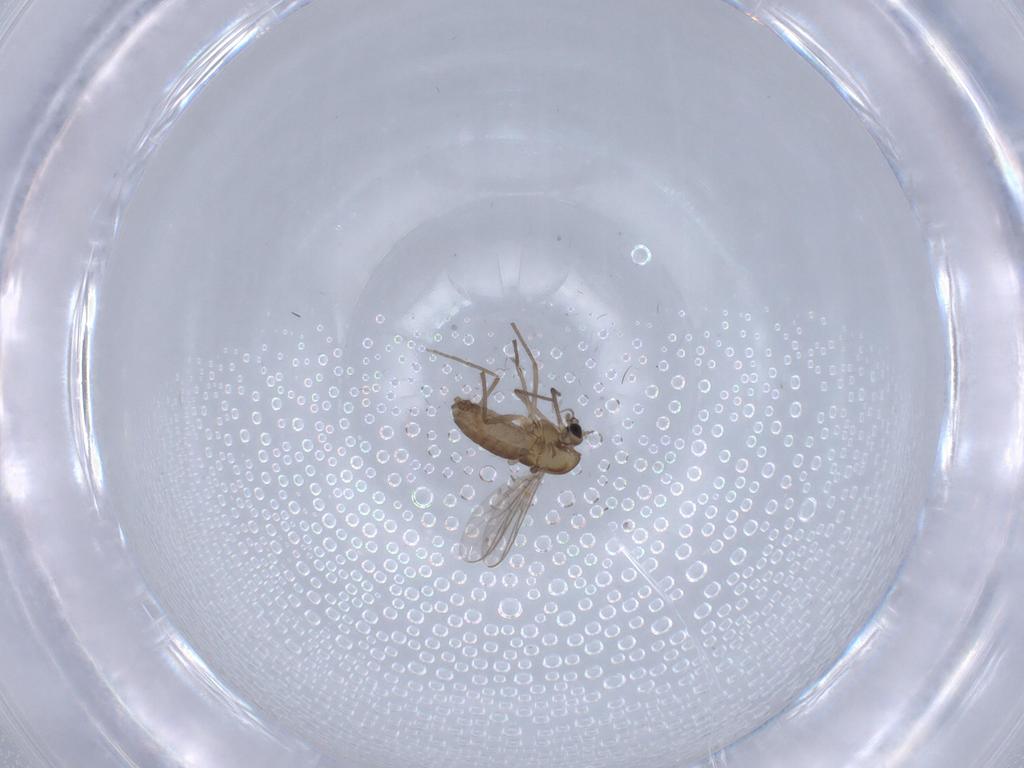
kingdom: Animalia
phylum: Arthropoda
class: Insecta
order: Diptera
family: Chironomidae
